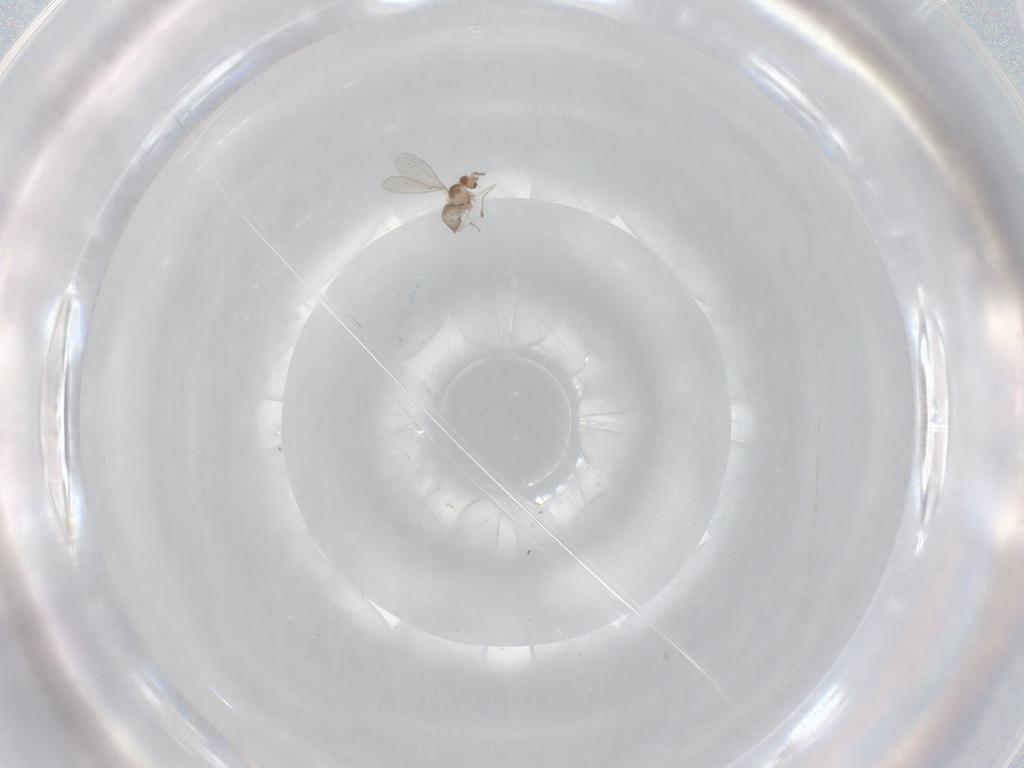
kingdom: Animalia
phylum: Arthropoda
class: Insecta
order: Diptera
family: Cecidomyiidae
